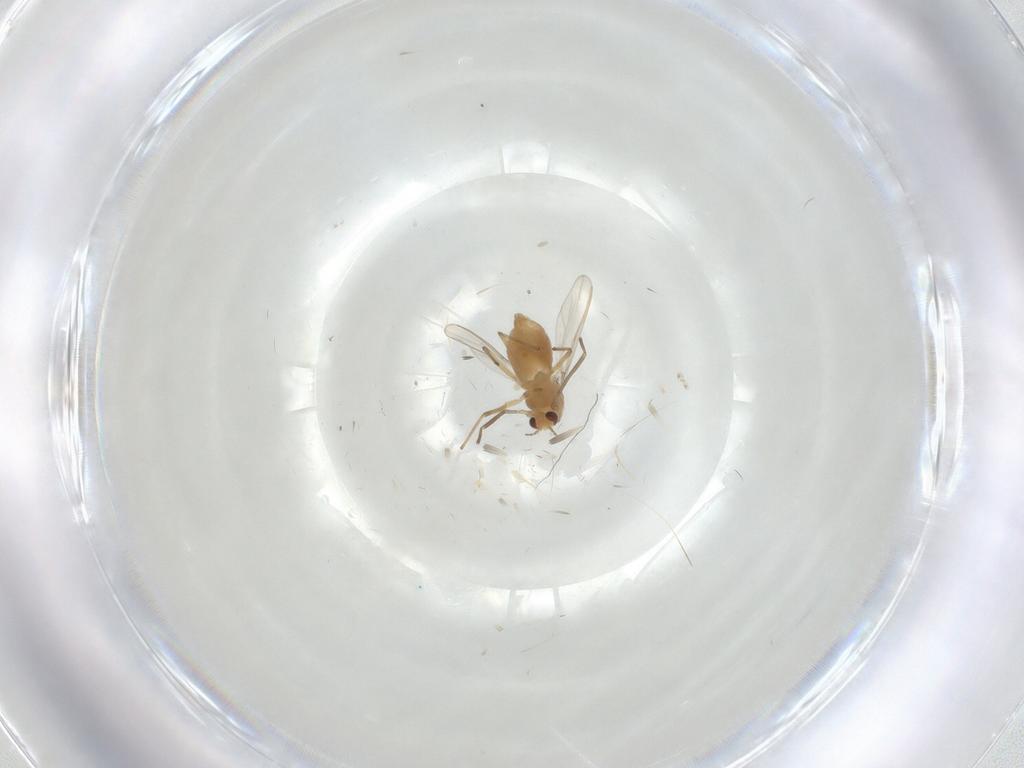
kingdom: Animalia
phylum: Arthropoda
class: Insecta
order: Diptera
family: Chironomidae
